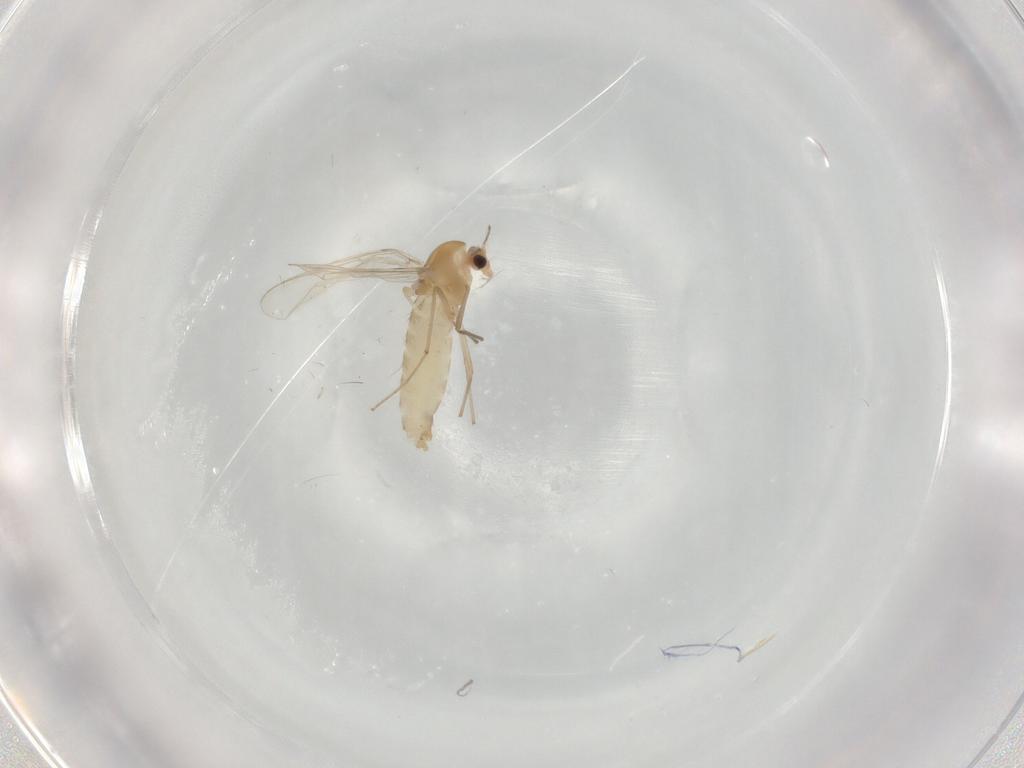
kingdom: Animalia
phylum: Arthropoda
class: Insecta
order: Diptera
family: Chironomidae
